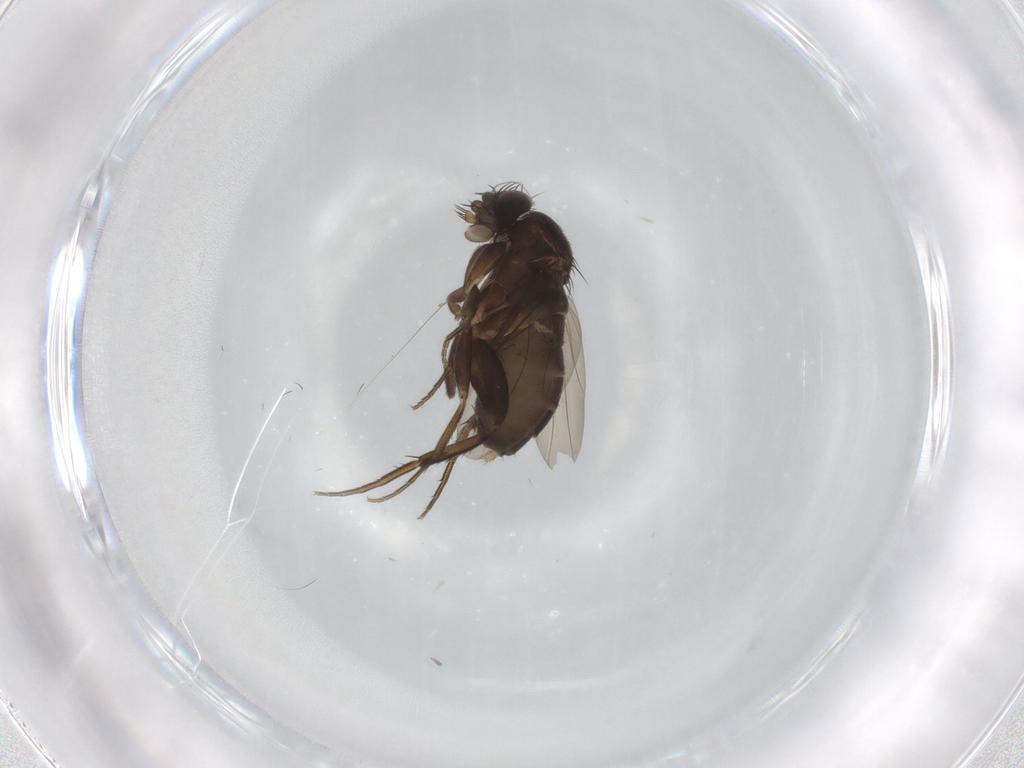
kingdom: Animalia
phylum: Arthropoda
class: Insecta
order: Diptera
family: Phoridae
